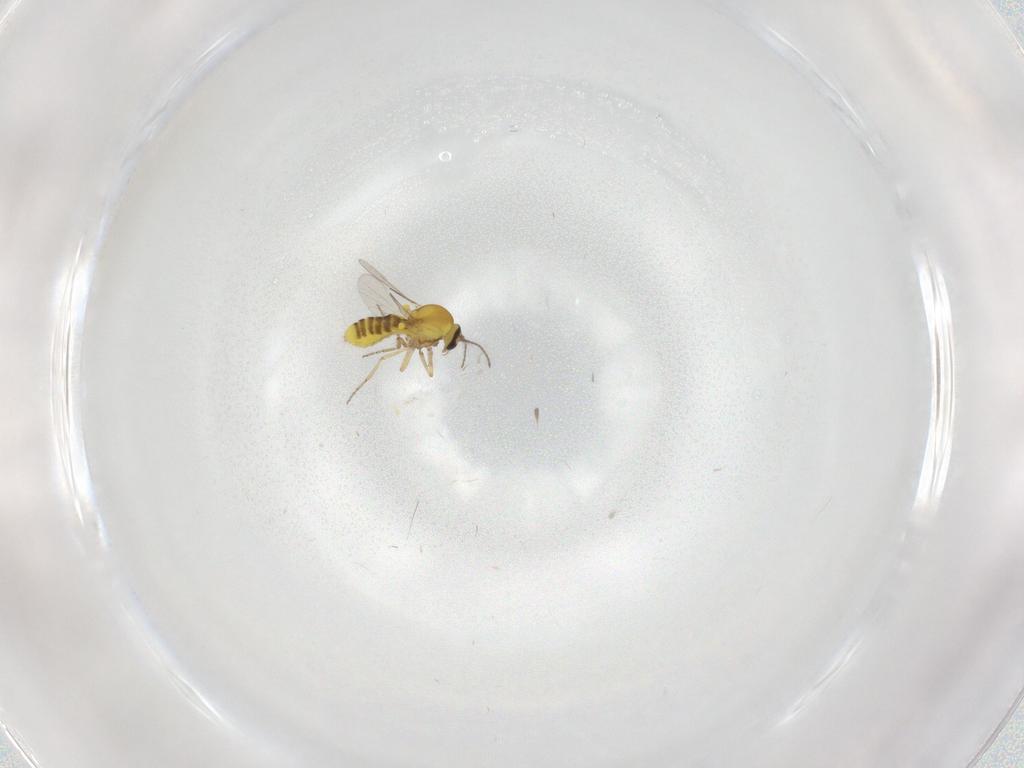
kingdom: Animalia
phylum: Arthropoda
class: Insecta
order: Diptera
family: Ceratopogonidae
